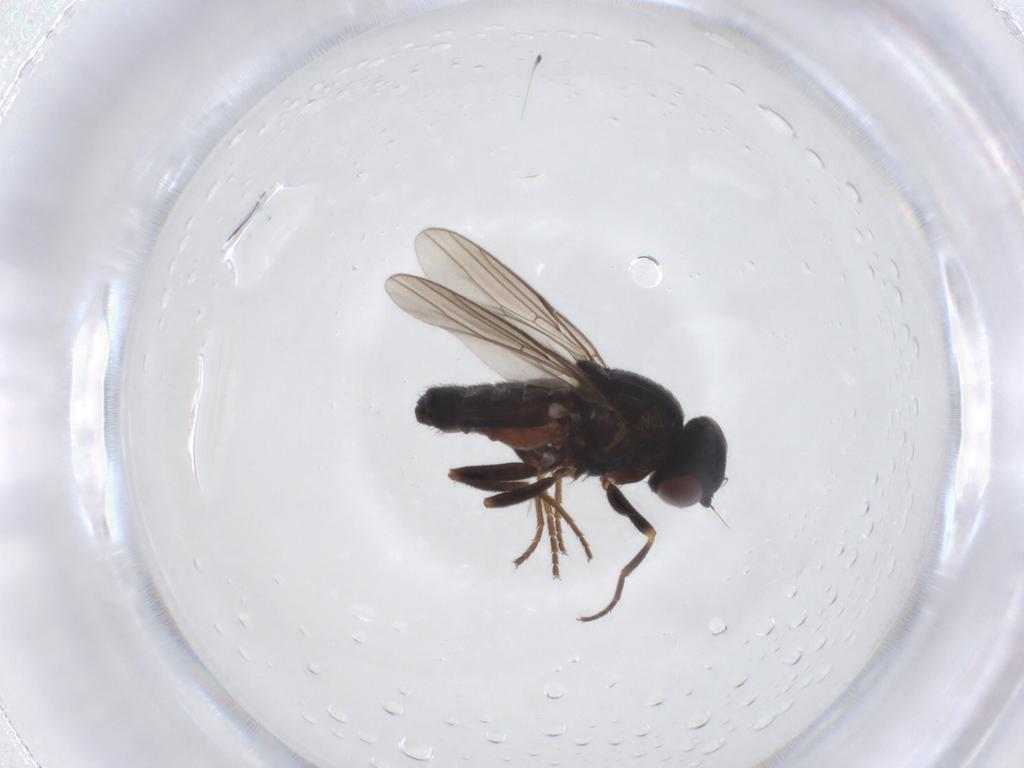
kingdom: Animalia
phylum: Arthropoda
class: Insecta
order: Diptera
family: Chloropidae
